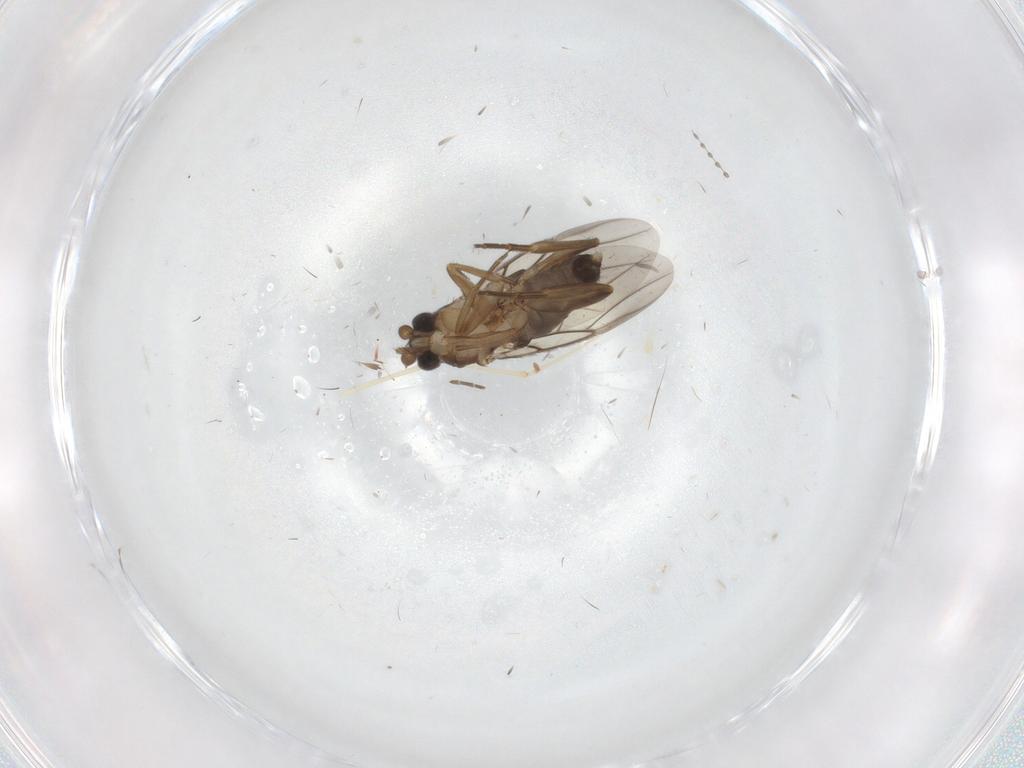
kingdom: Animalia
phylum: Arthropoda
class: Insecta
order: Diptera
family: Phoridae
